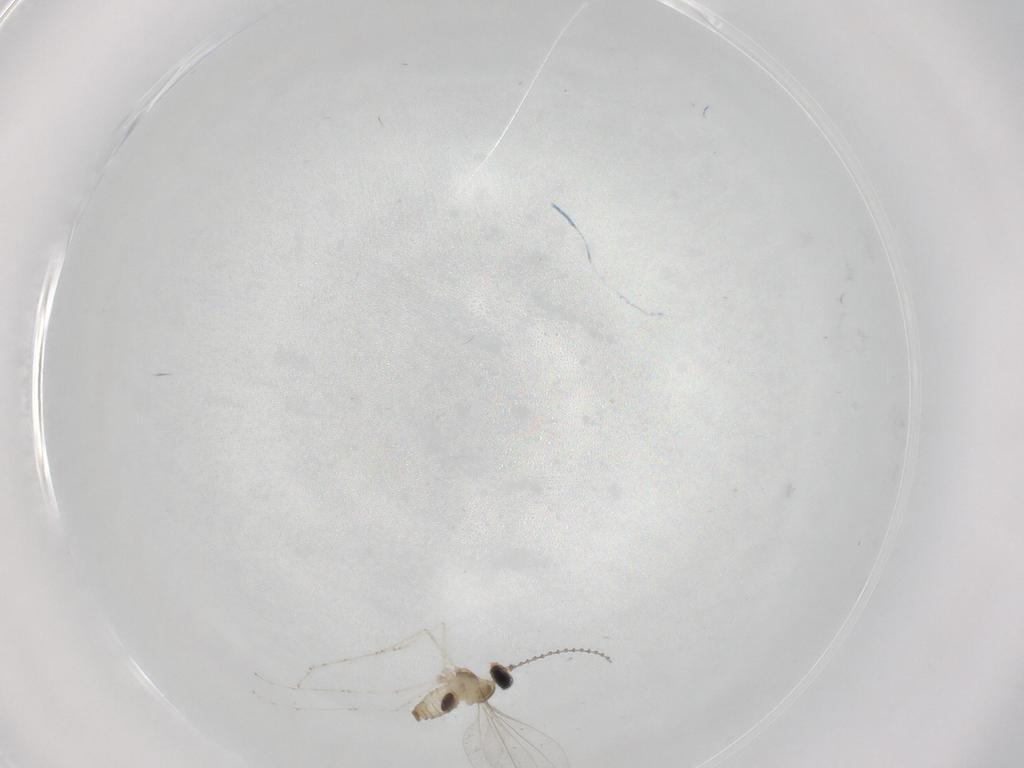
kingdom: Animalia
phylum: Arthropoda
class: Insecta
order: Diptera
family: Cecidomyiidae
